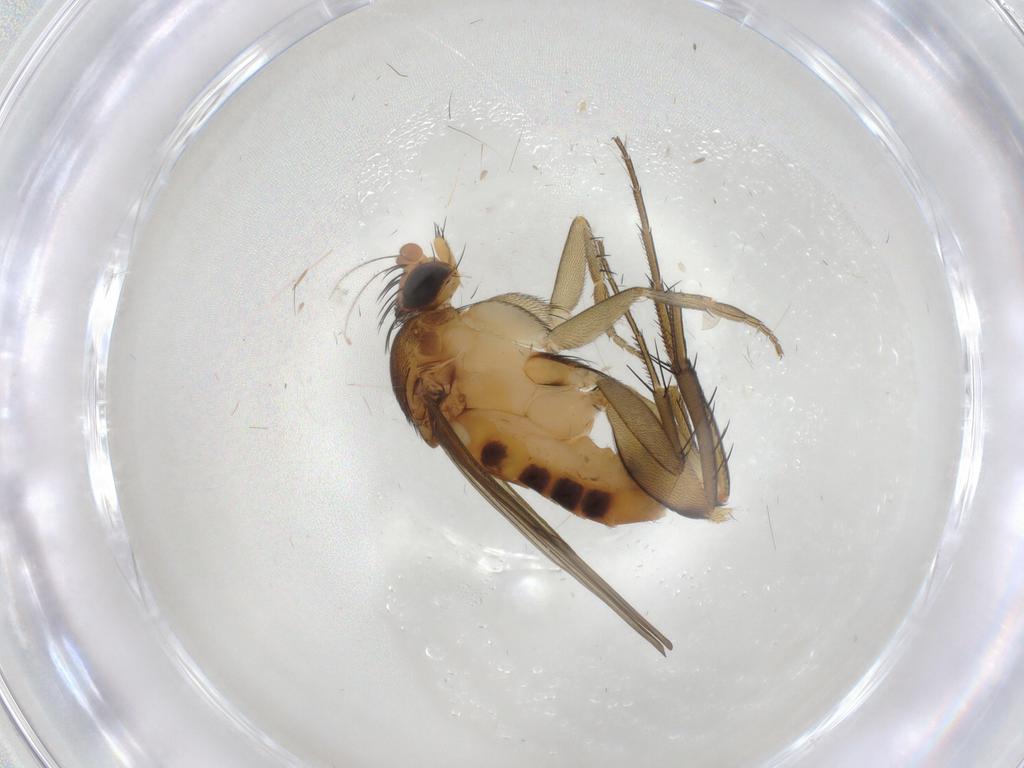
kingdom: Animalia
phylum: Arthropoda
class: Insecta
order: Diptera
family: Phoridae
